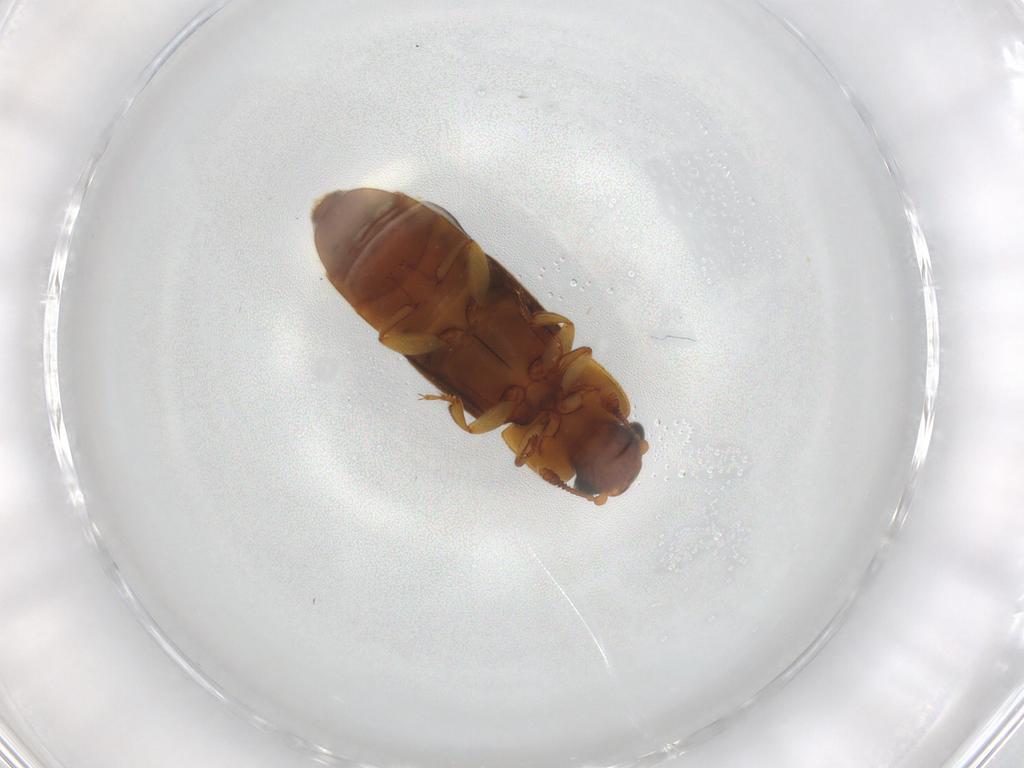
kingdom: Animalia
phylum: Arthropoda
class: Insecta
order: Coleoptera
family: Nitidulidae
